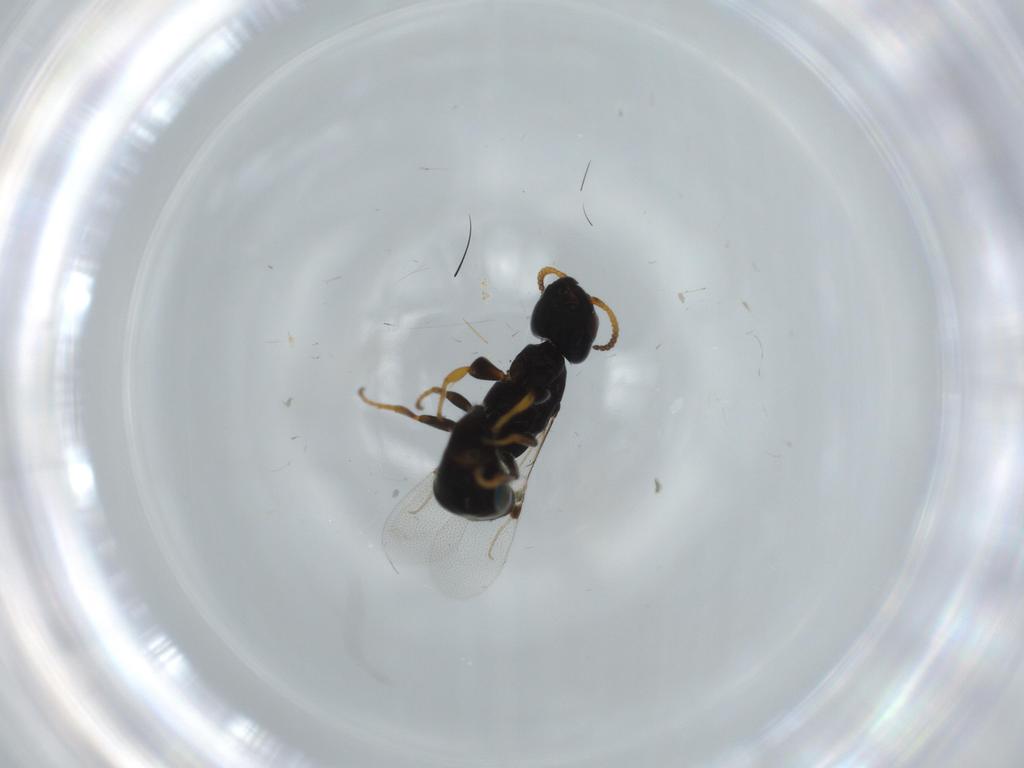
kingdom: Animalia
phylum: Arthropoda
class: Insecta
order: Hymenoptera
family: Bethylidae
